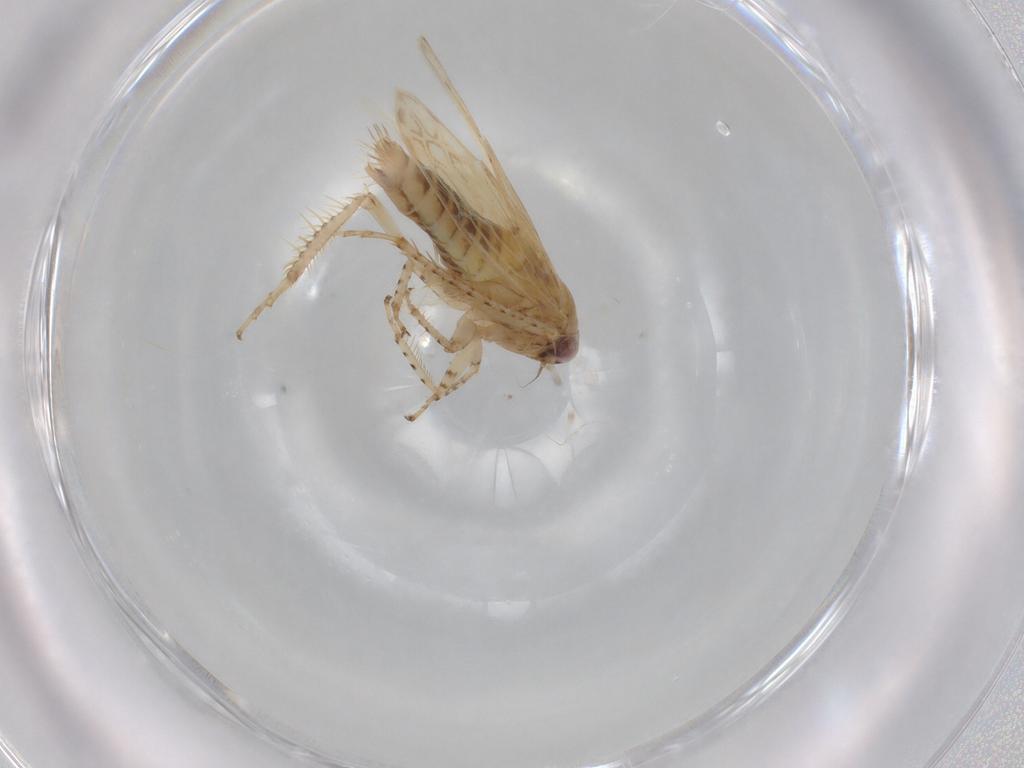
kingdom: Animalia
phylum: Arthropoda
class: Insecta
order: Hemiptera
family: Cicadellidae
